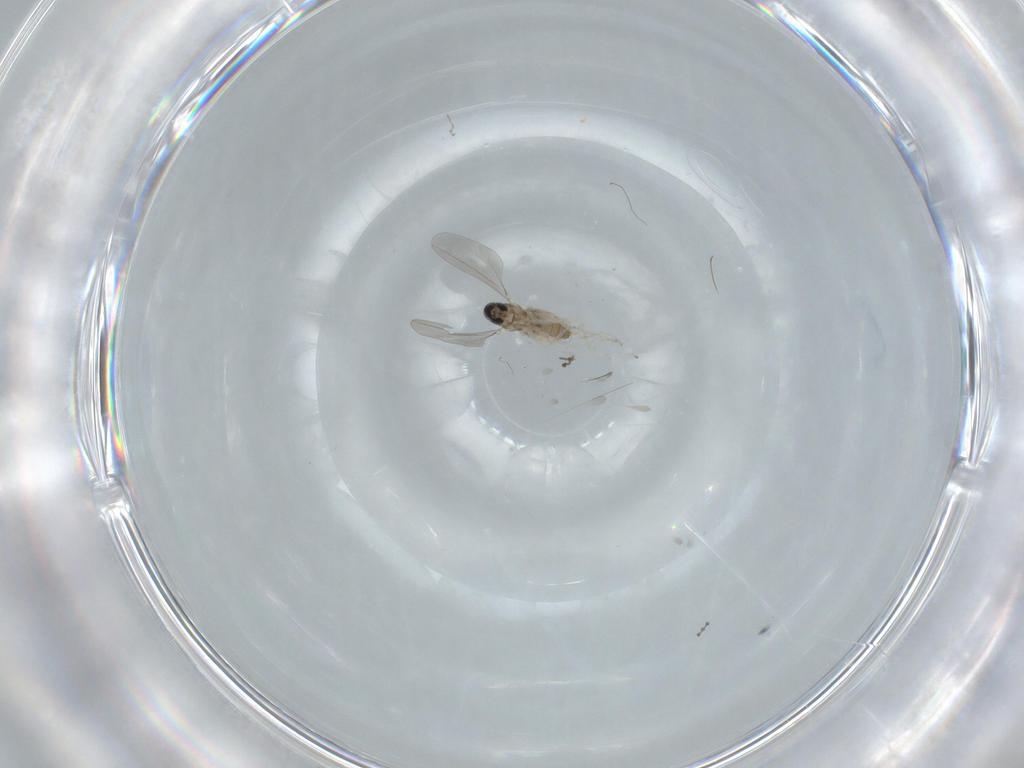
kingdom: Animalia
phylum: Arthropoda
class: Insecta
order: Diptera
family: Cecidomyiidae
